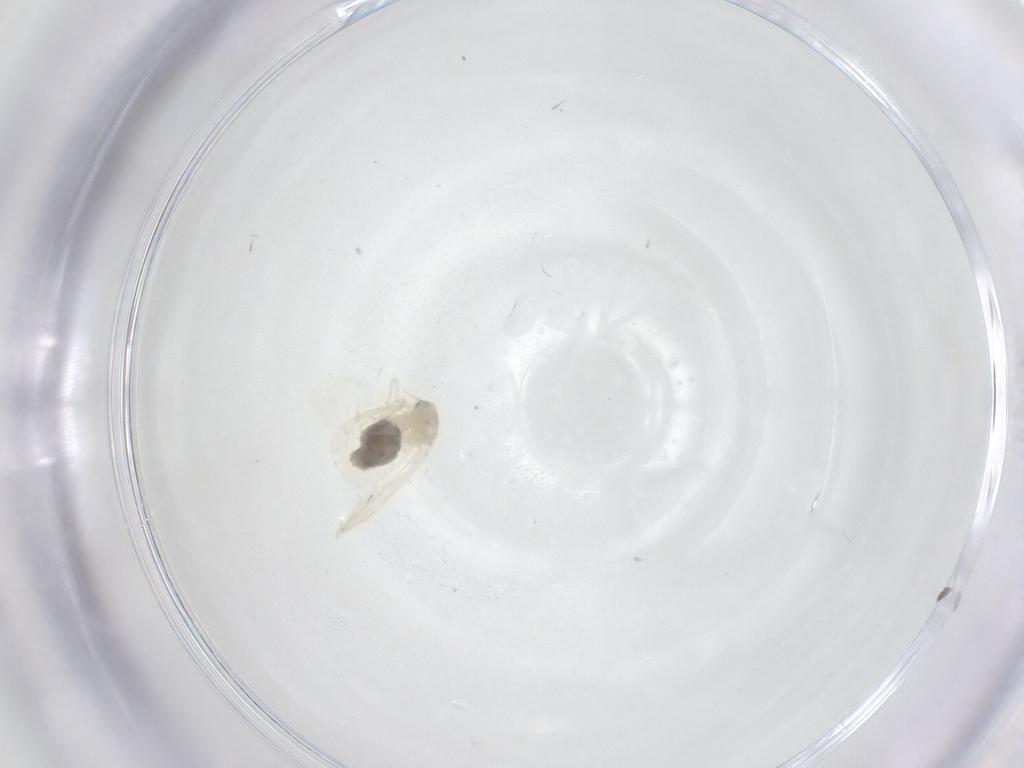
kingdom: Animalia
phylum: Arthropoda
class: Insecta
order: Hemiptera
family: Aleyrodidae
